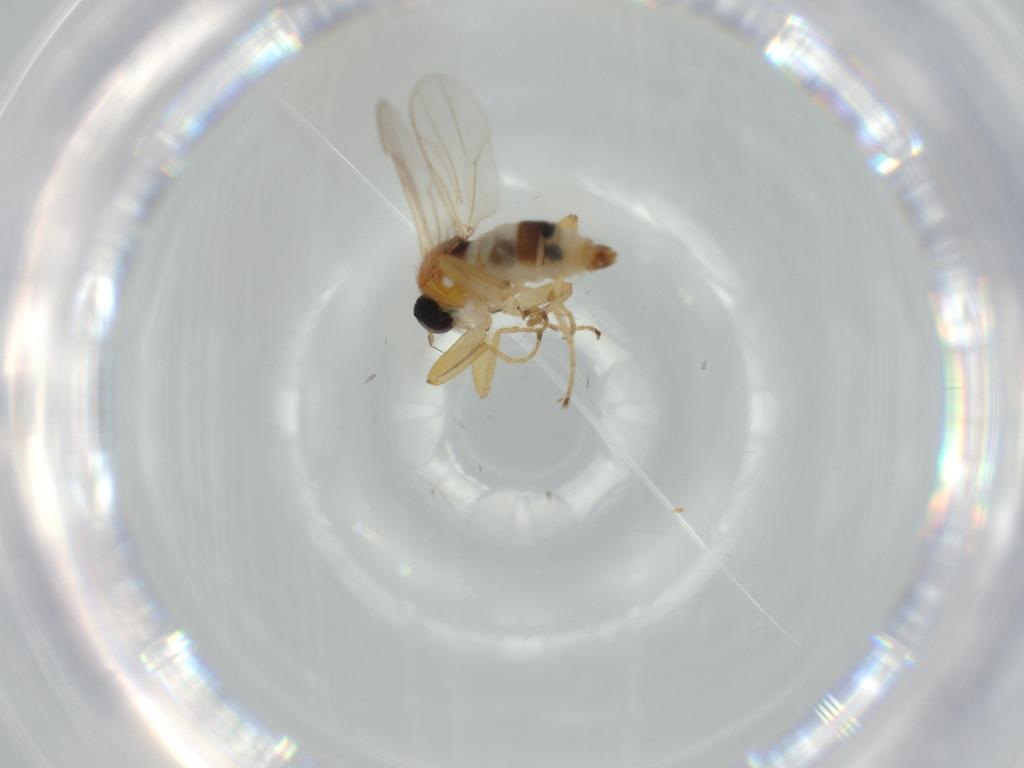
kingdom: Animalia
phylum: Arthropoda
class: Insecta
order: Diptera
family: Hybotidae
